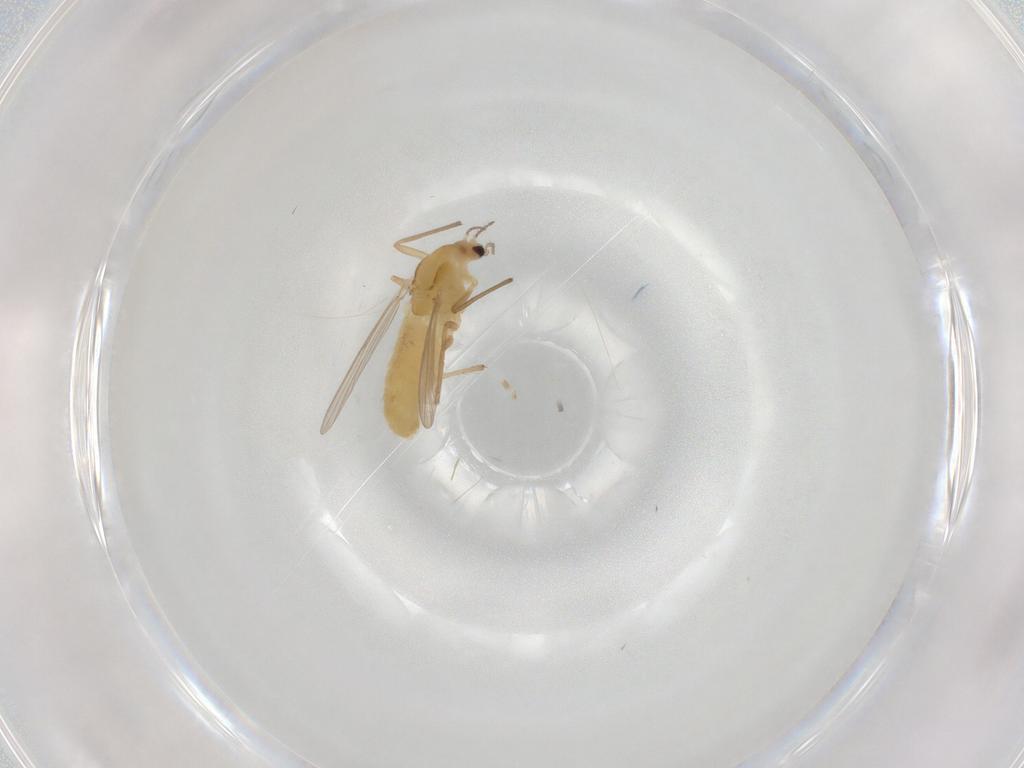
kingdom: Animalia
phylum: Arthropoda
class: Insecta
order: Diptera
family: Chironomidae
